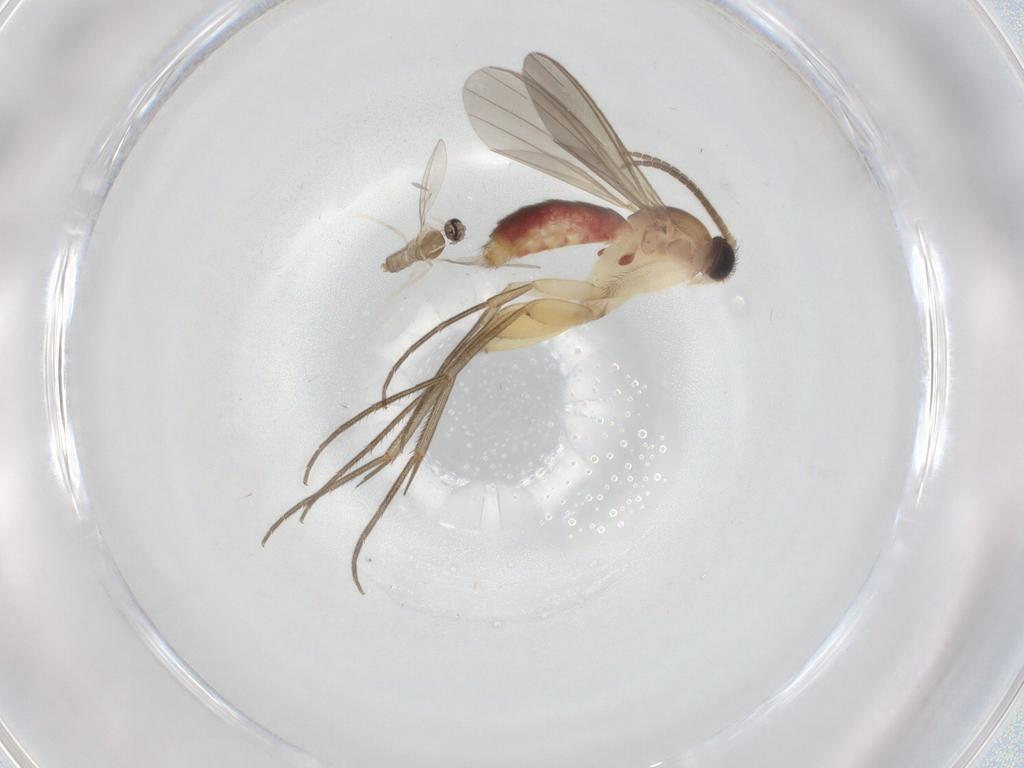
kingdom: Animalia
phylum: Arthropoda
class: Insecta
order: Diptera
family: Mycetophilidae
